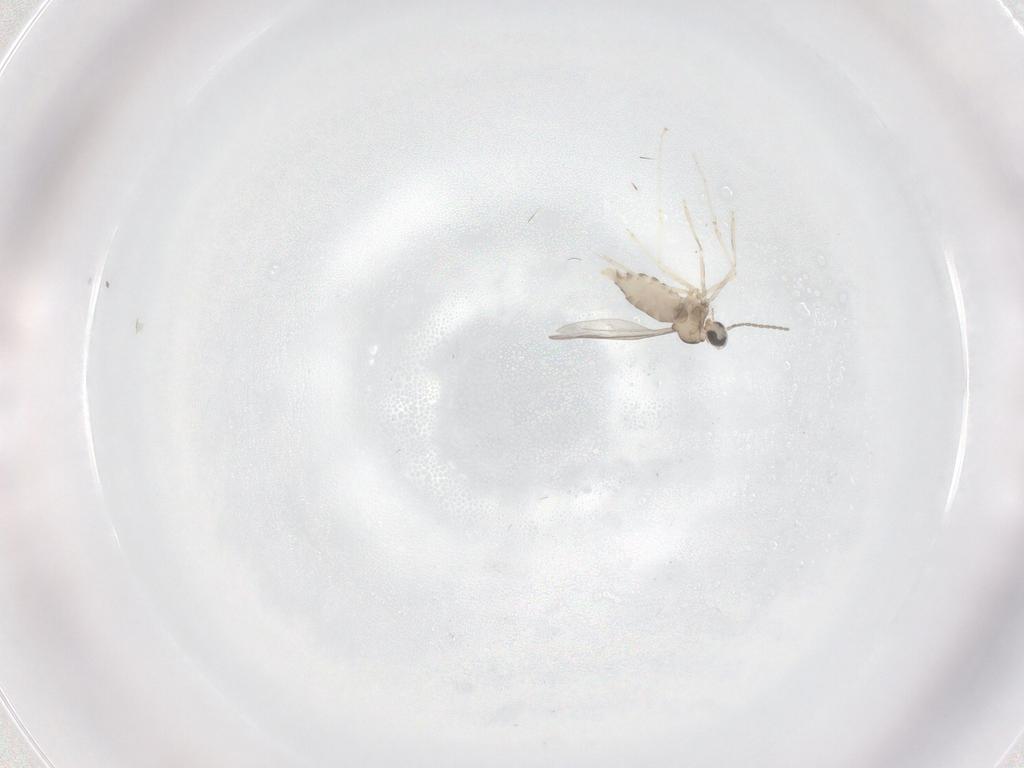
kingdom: Animalia
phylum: Arthropoda
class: Insecta
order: Diptera
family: Cecidomyiidae
